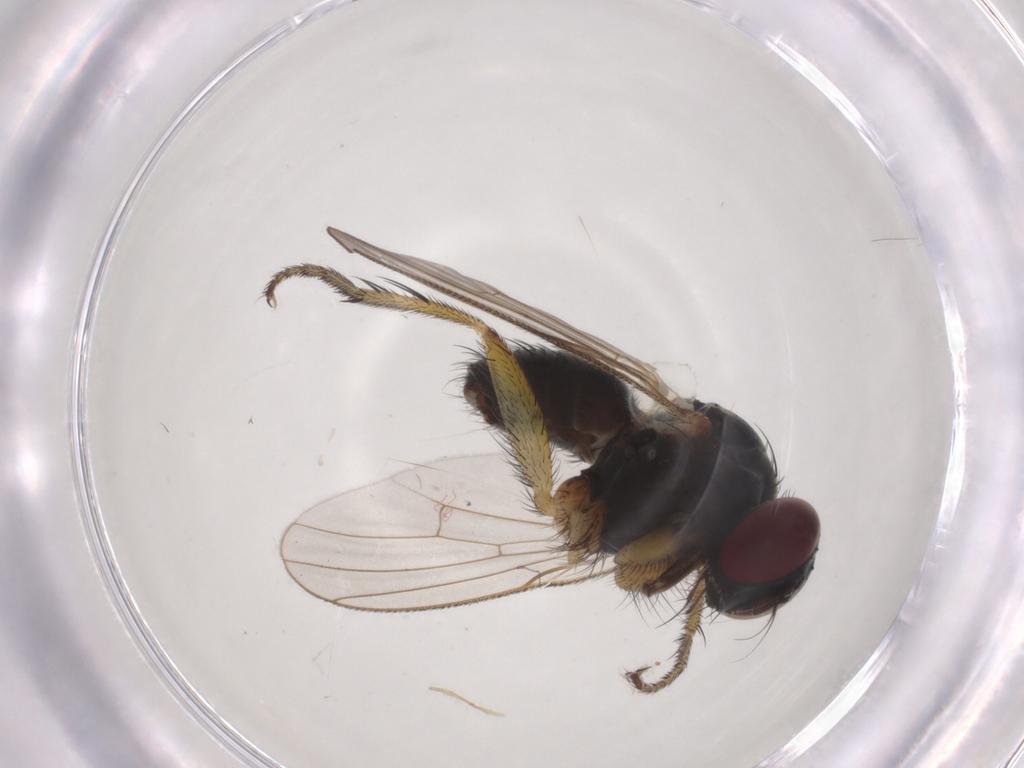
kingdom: Animalia
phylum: Arthropoda
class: Insecta
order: Diptera
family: Muscidae
